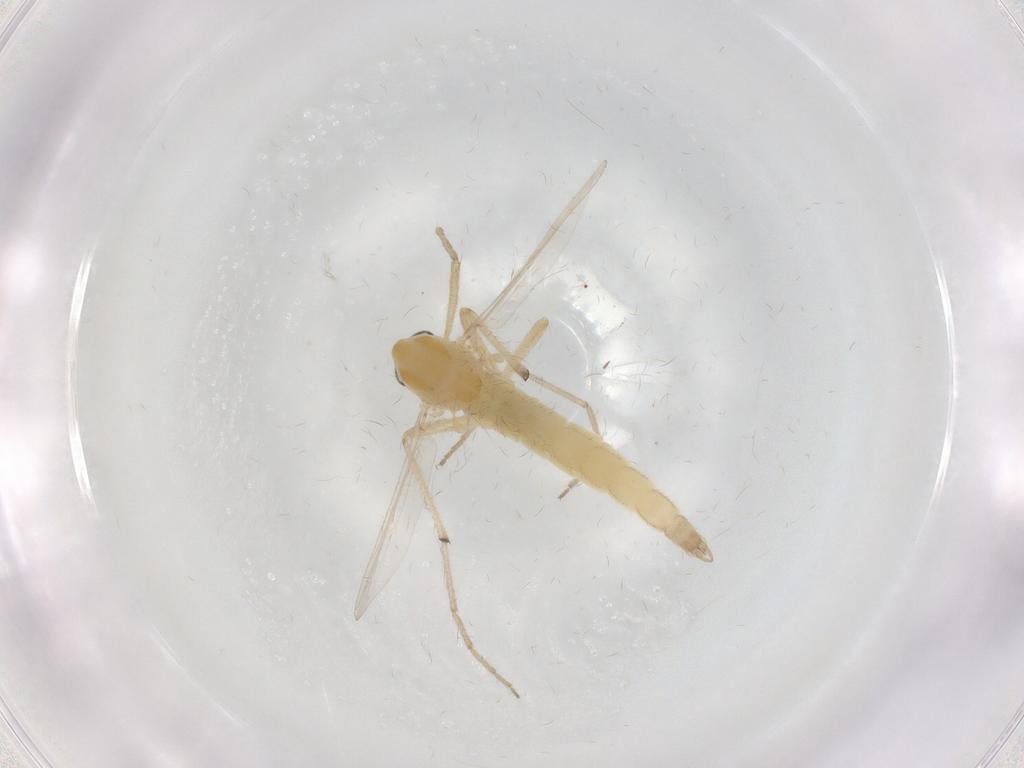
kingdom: Animalia
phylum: Arthropoda
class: Insecta
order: Diptera
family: Chironomidae
